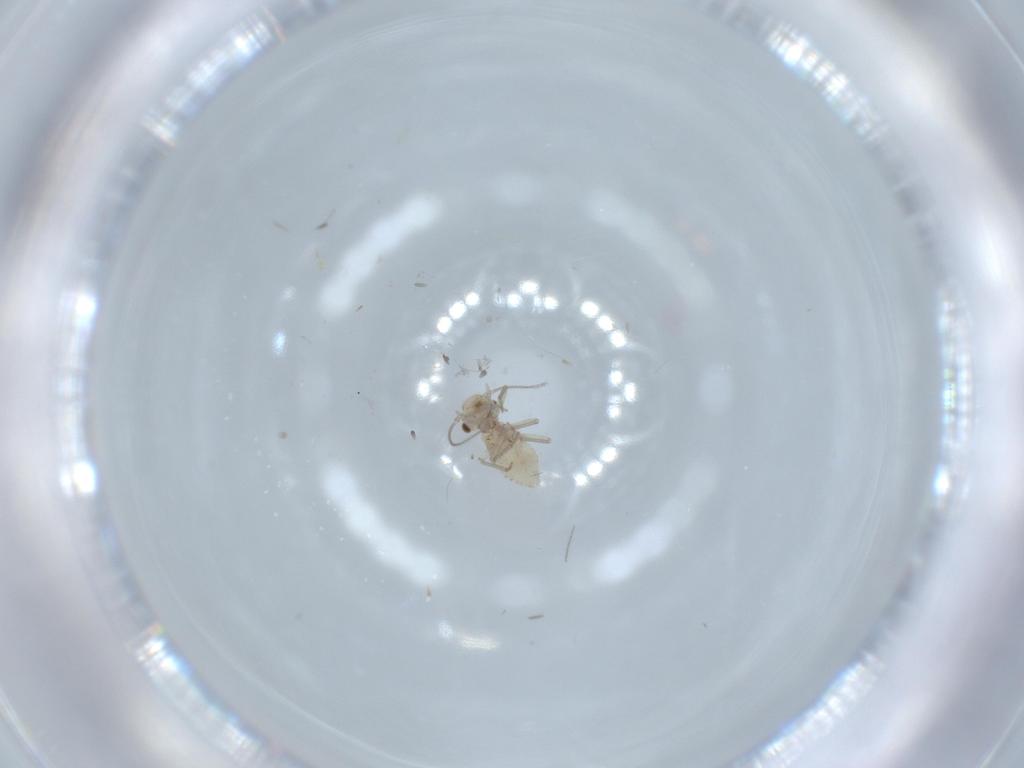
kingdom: Animalia
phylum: Arthropoda
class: Insecta
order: Psocodea
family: Lachesillidae
